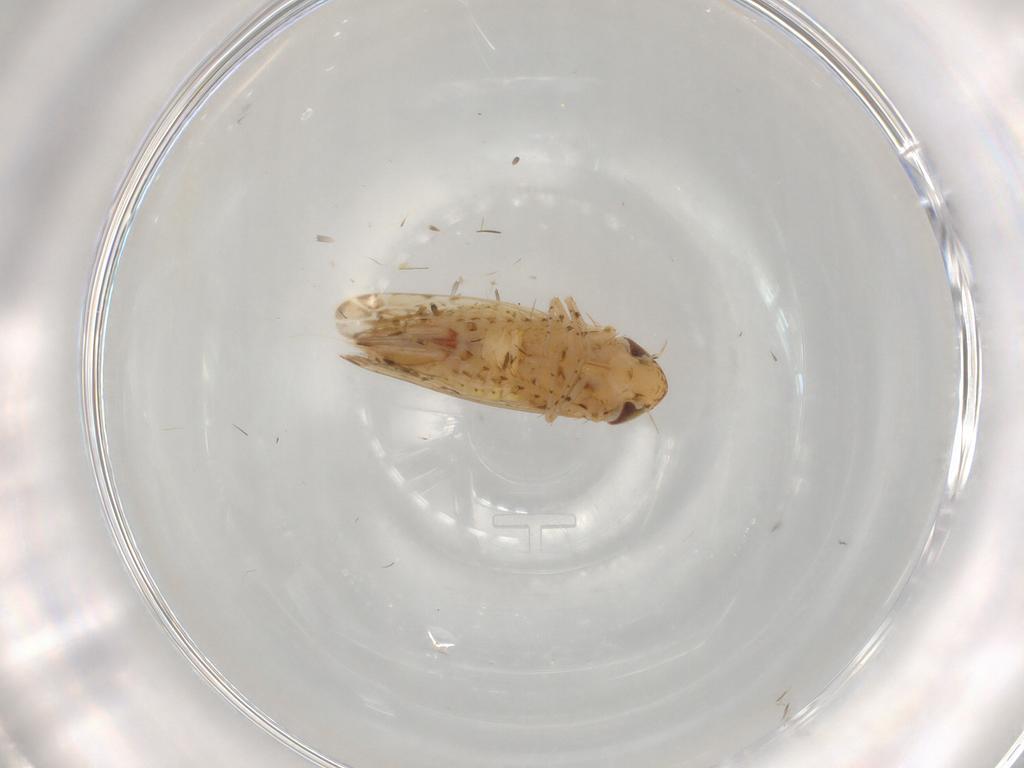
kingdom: Animalia
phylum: Arthropoda
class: Insecta
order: Hemiptera
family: Cicadellidae
